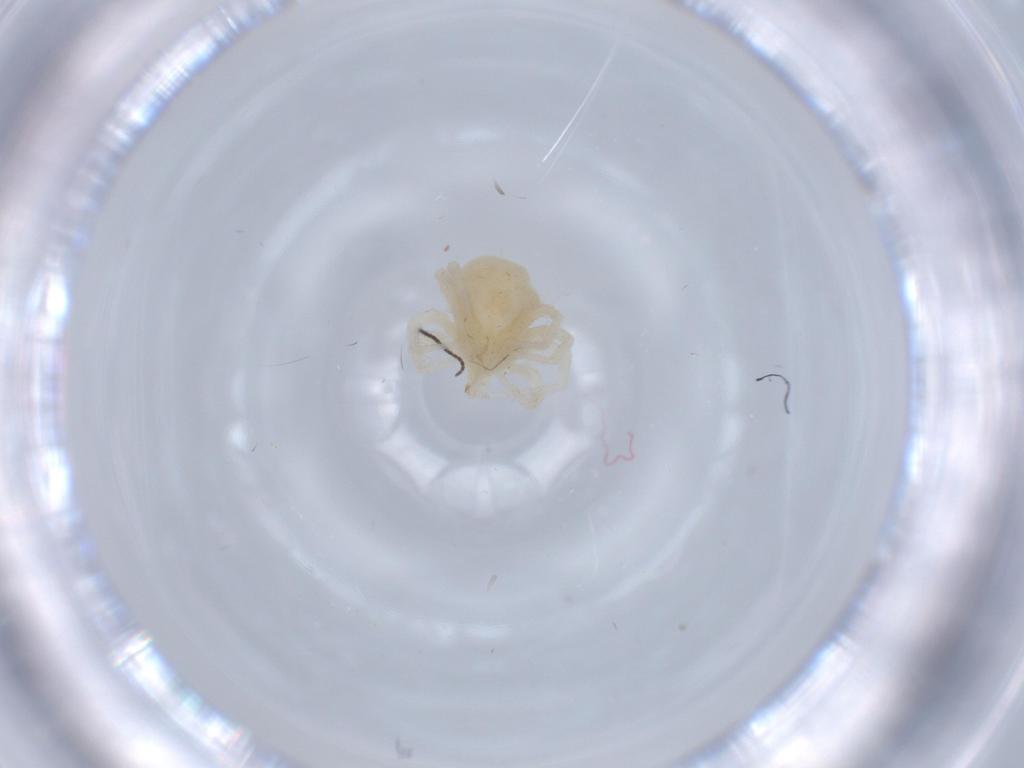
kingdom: Animalia
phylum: Arthropoda
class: Arachnida
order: Trombidiformes
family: Anystidae
